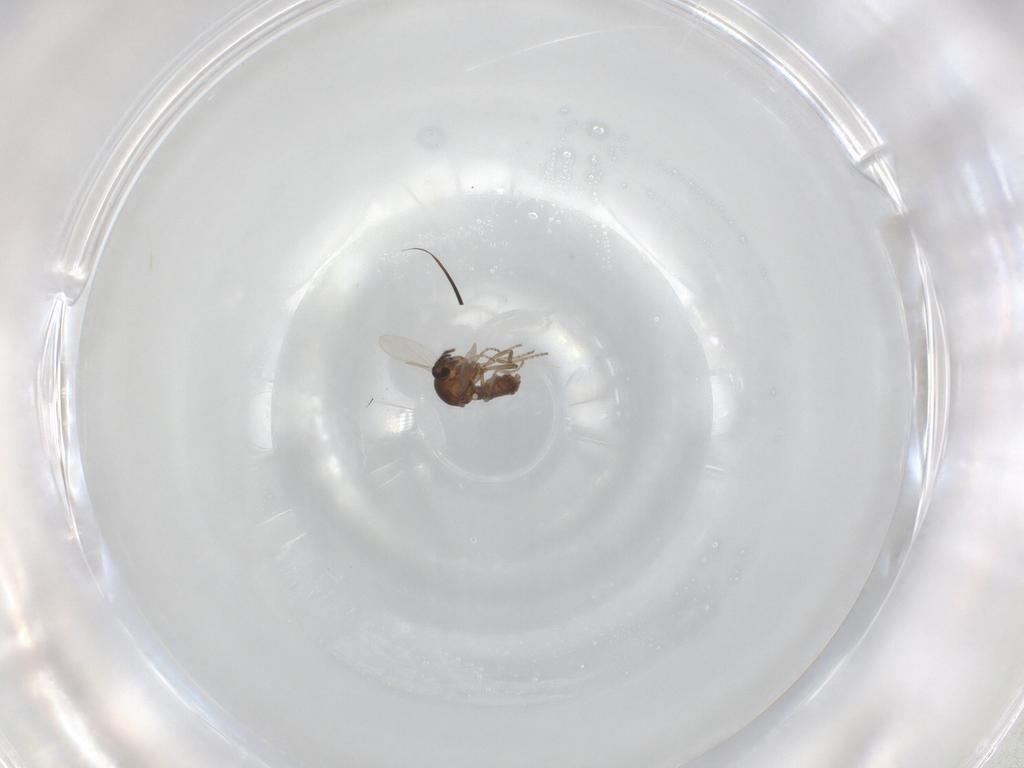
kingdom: Animalia
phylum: Arthropoda
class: Insecta
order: Diptera
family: Ceratopogonidae
